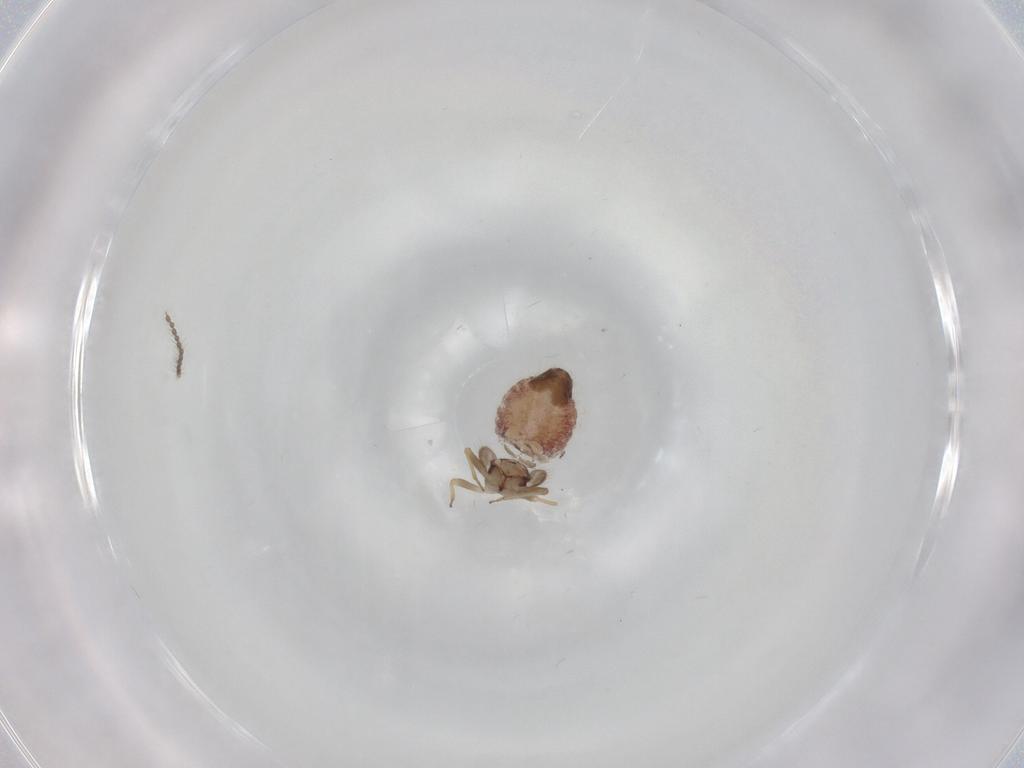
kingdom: Animalia
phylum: Arthropoda
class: Insecta
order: Psocodea
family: Archipsocidae
